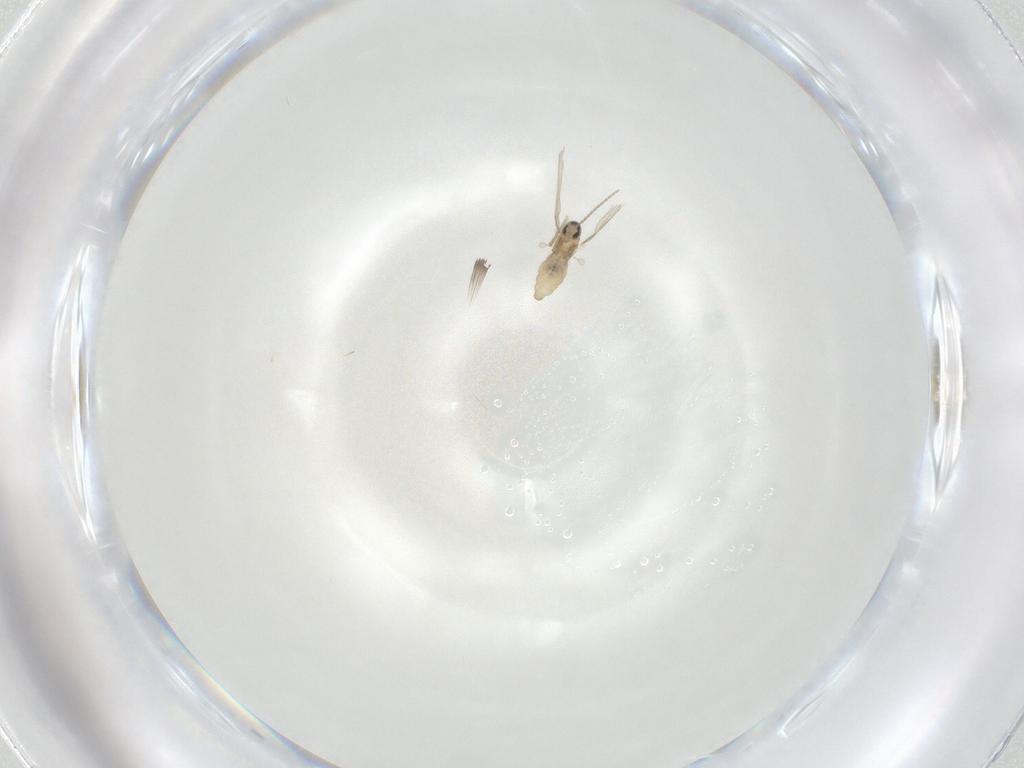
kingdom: Animalia
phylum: Arthropoda
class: Insecta
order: Diptera
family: Cecidomyiidae
